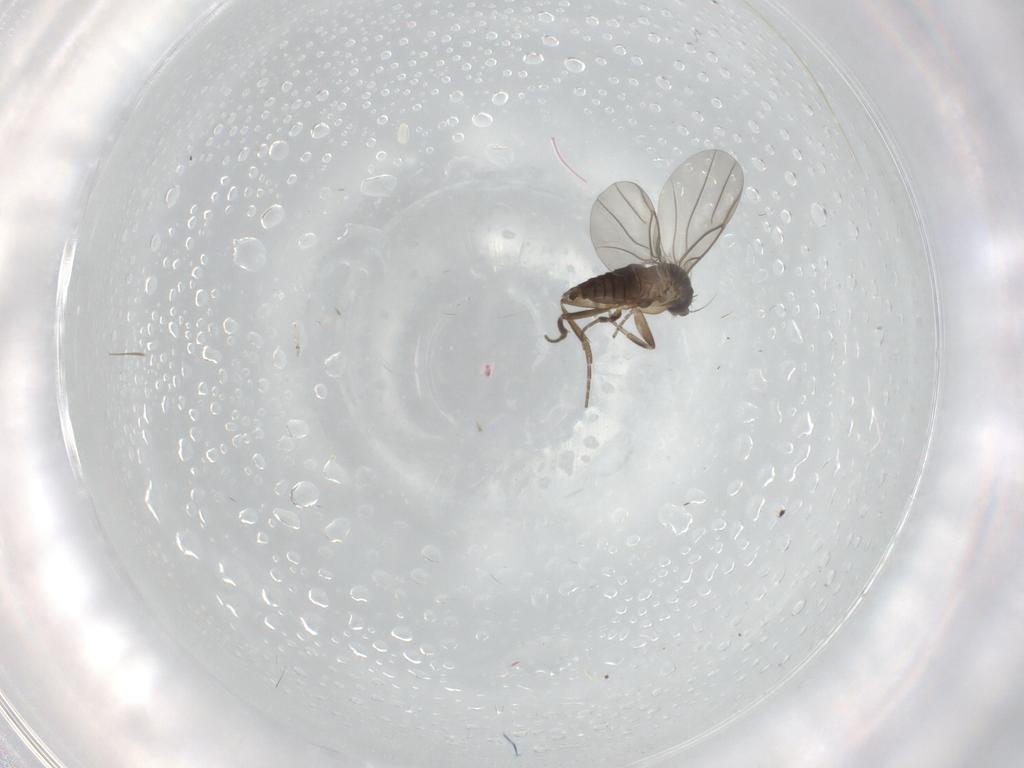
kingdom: Animalia
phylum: Arthropoda
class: Insecta
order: Diptera
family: Phoridae
